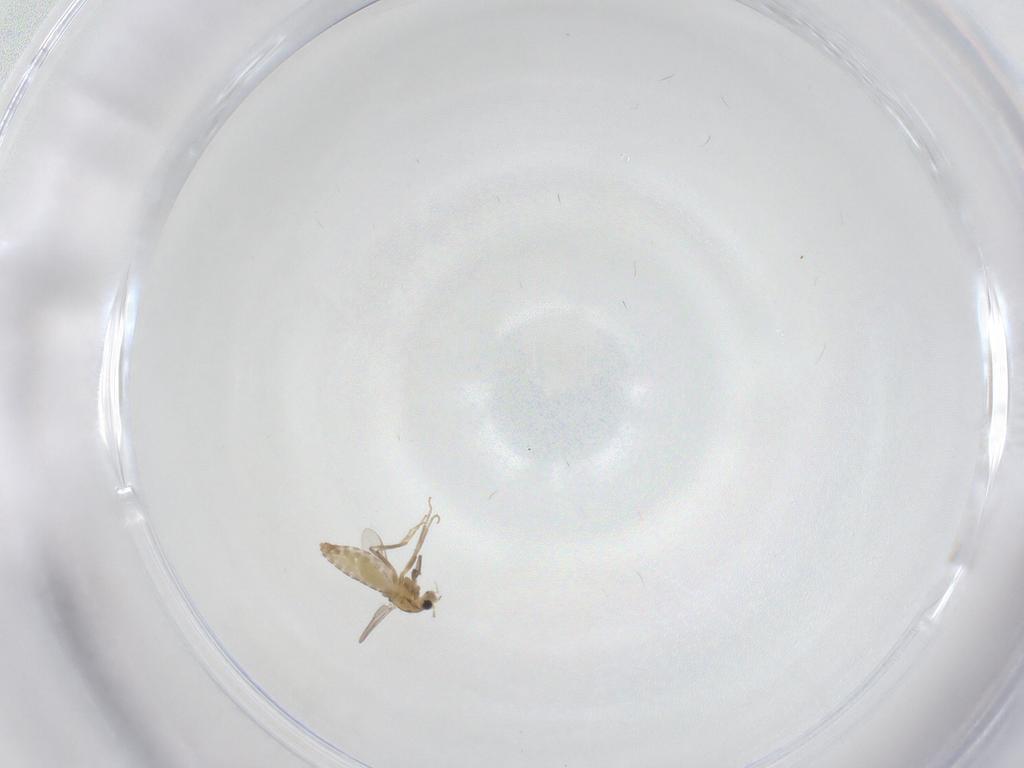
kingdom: Animalia
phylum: Arthropoda
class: Insecta
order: Diptera
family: Chironomidae
